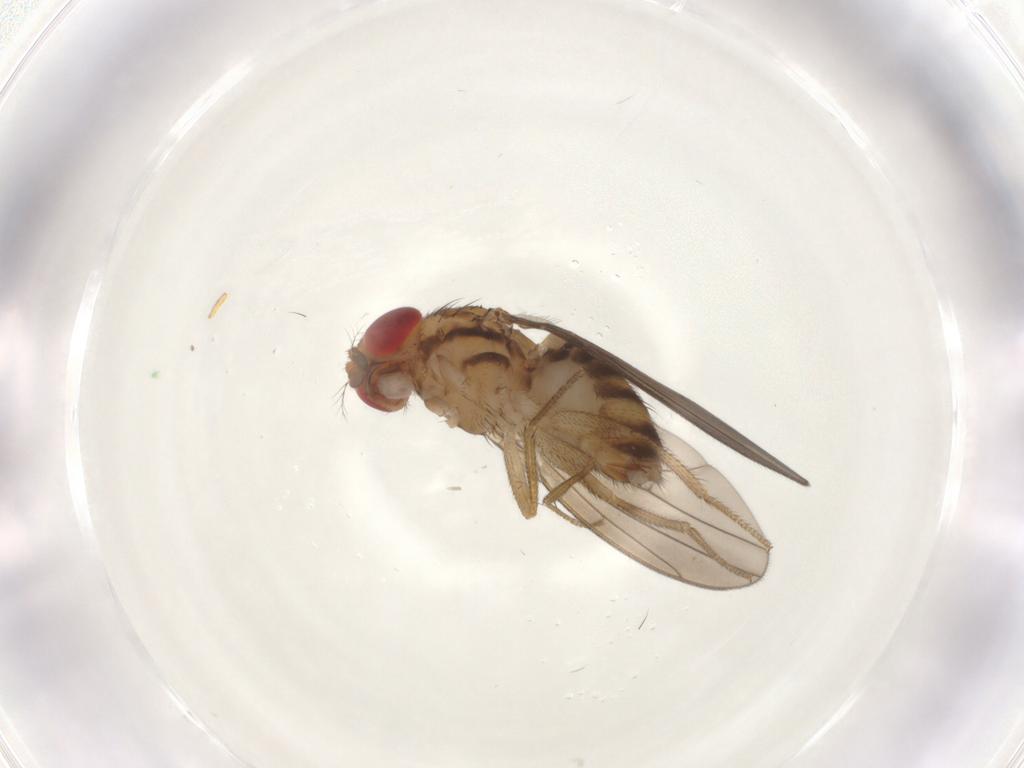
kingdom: Animalia
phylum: Arthropoda
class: Insecta
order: Diptera
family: Drosophilidae
